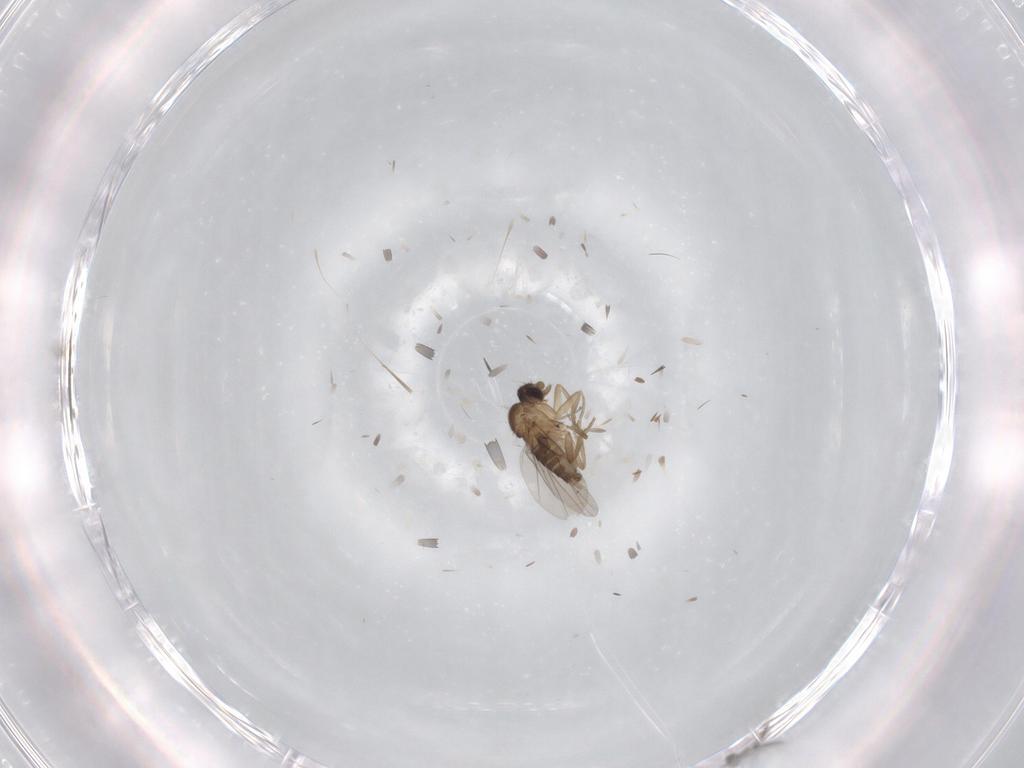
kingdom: Animalia
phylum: Arthropoda
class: Insecta
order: Diptera
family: Phoridae
